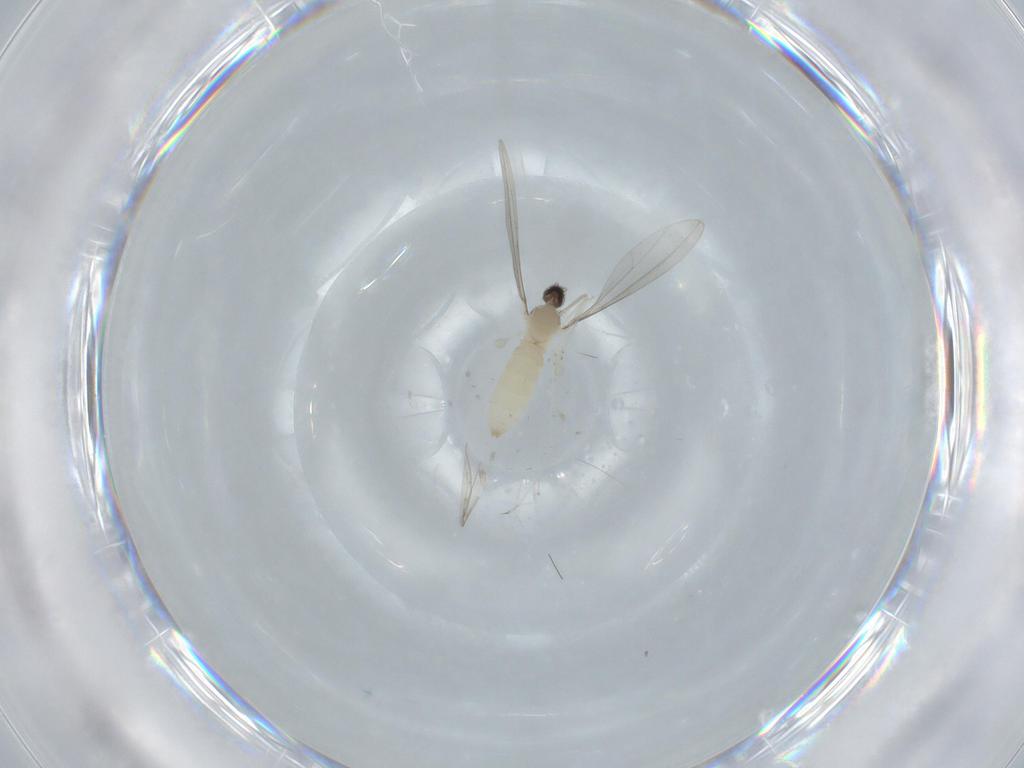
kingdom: Animalia
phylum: Arthropoda
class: Insecta
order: Diptera
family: Cecidomyiidae
